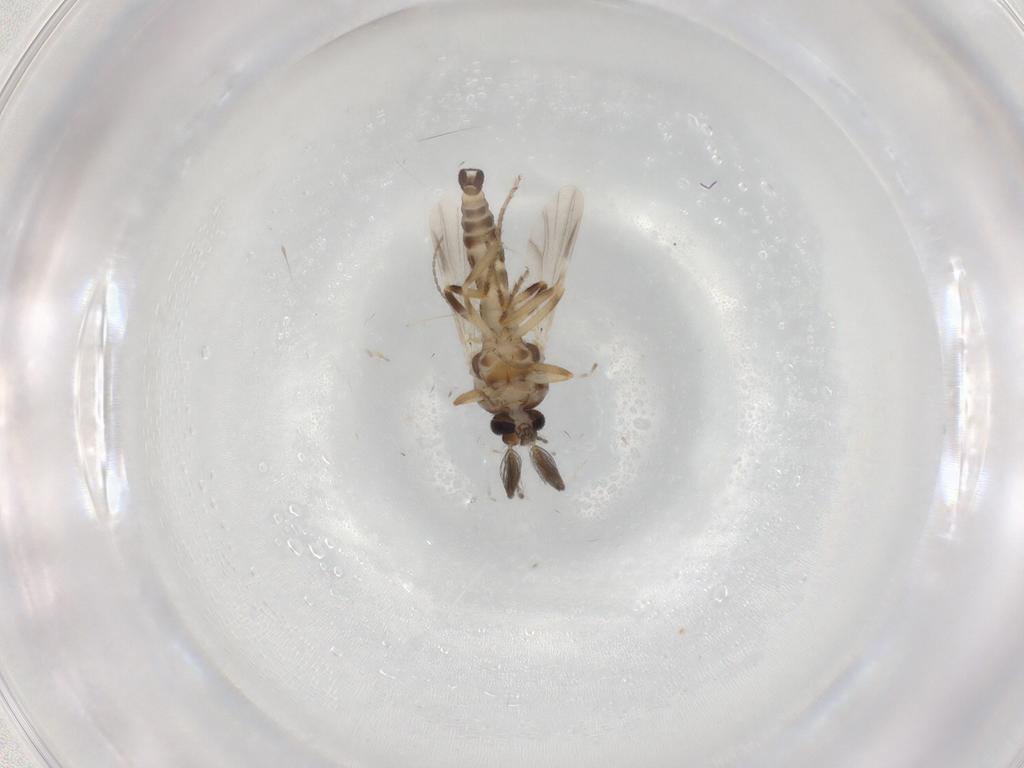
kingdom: Animalia
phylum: Arthropoda
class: Insecta
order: Diptera
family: Ceratopogonidae
